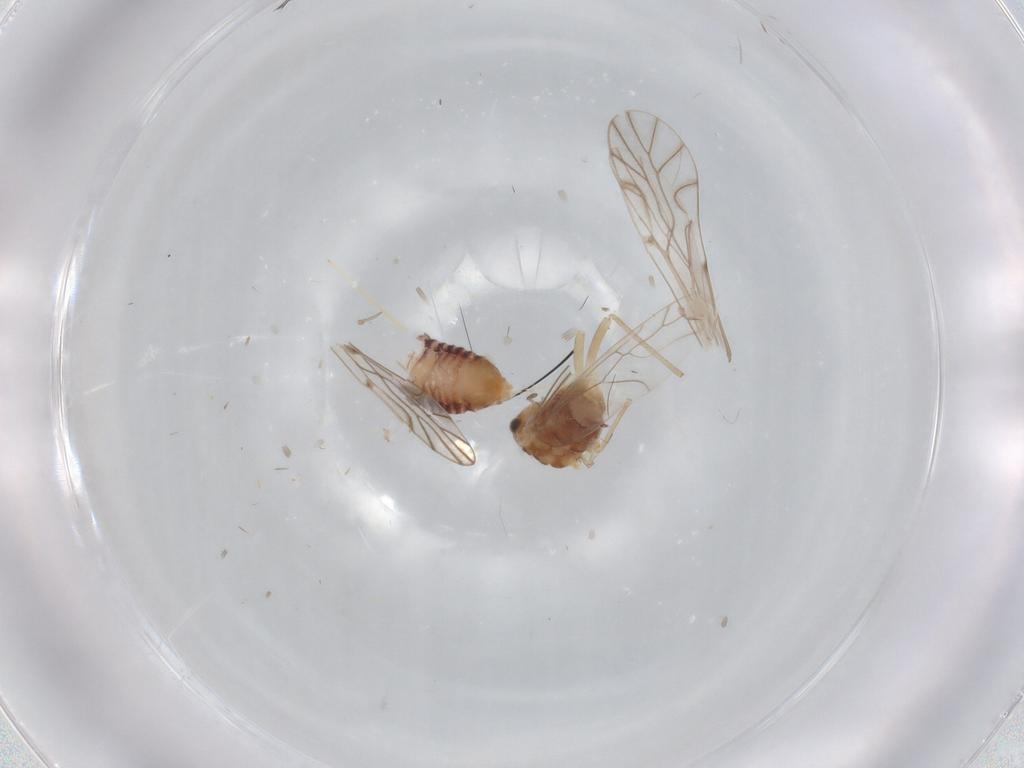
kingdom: Animalia
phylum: Arthropoda
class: Insecta
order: Psocodea
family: Lachesillidae
